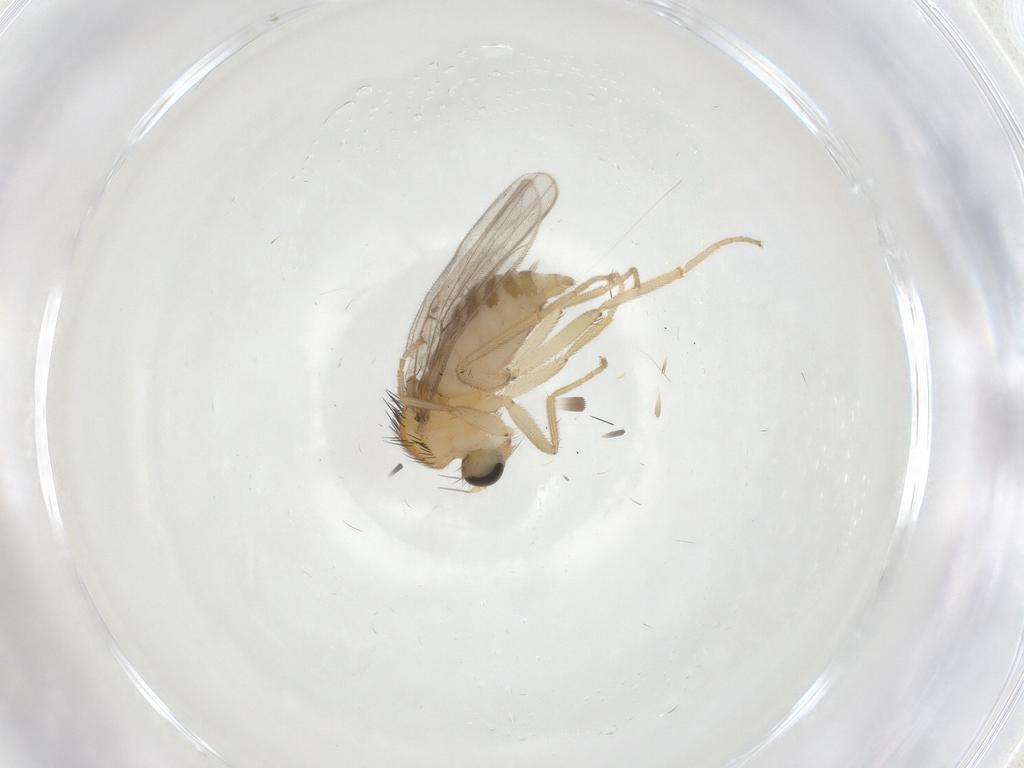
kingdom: Animalia
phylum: Arthropoda
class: Insecta
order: Diptera
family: Hybotidae
